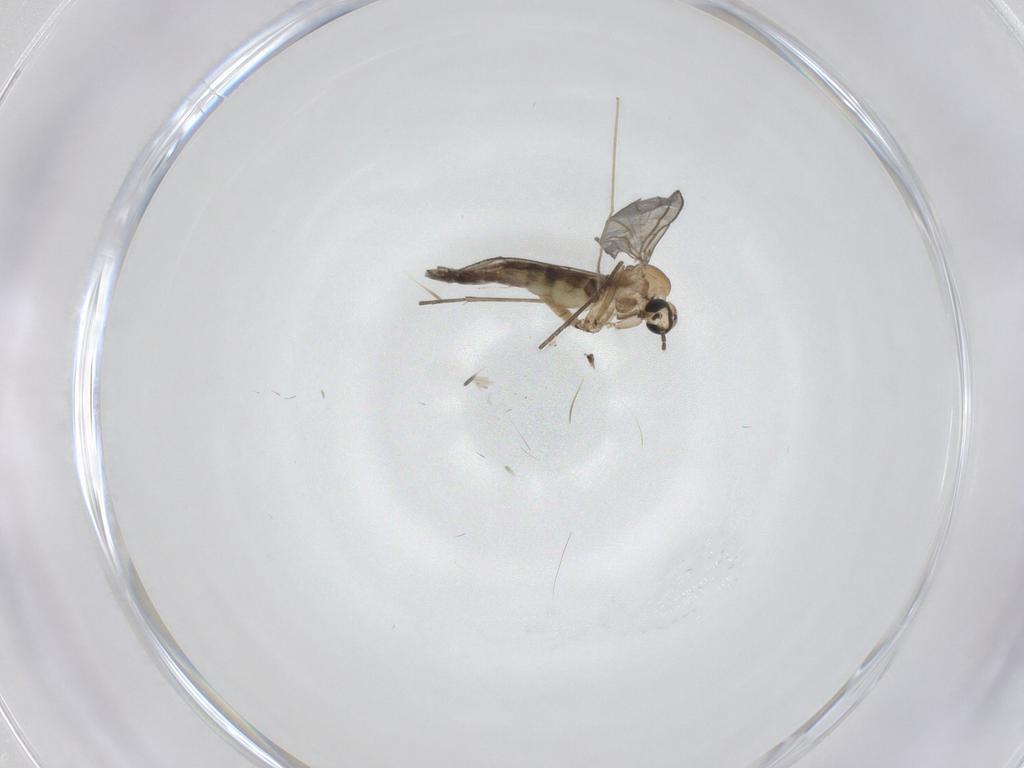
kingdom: Animalia
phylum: Arthropoda
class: Insecta
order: Diptera
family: Chironomidae
